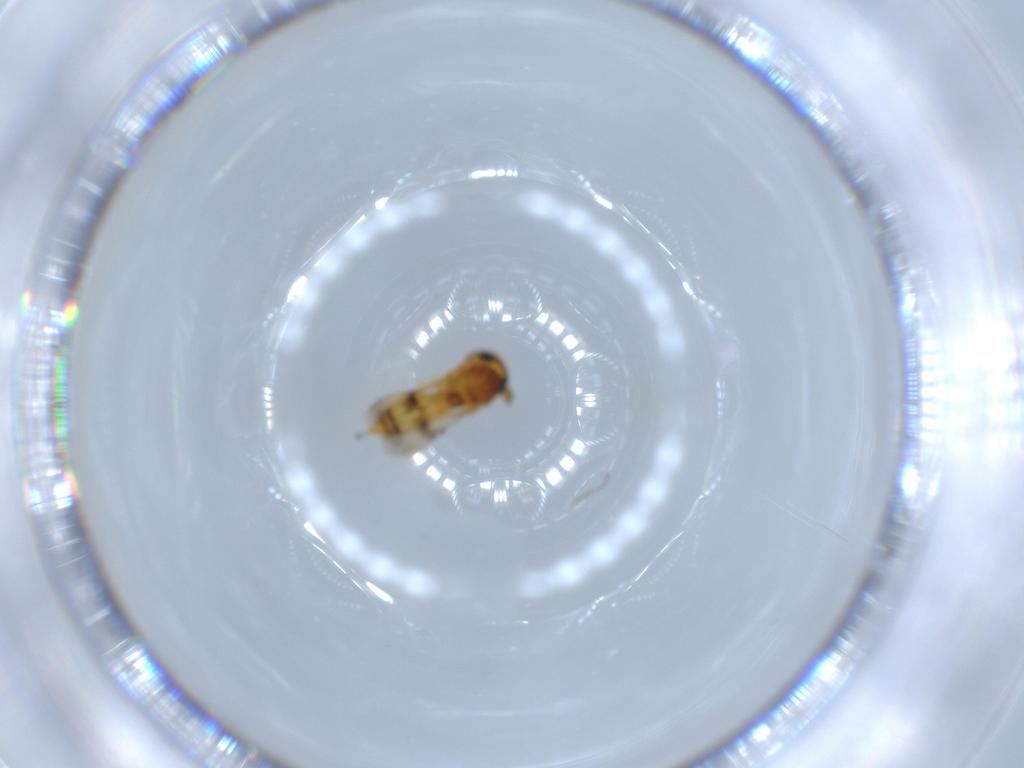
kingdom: Animalia
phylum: Arthropoda
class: Insecta
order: Hymenoptera
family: Scelionidae
